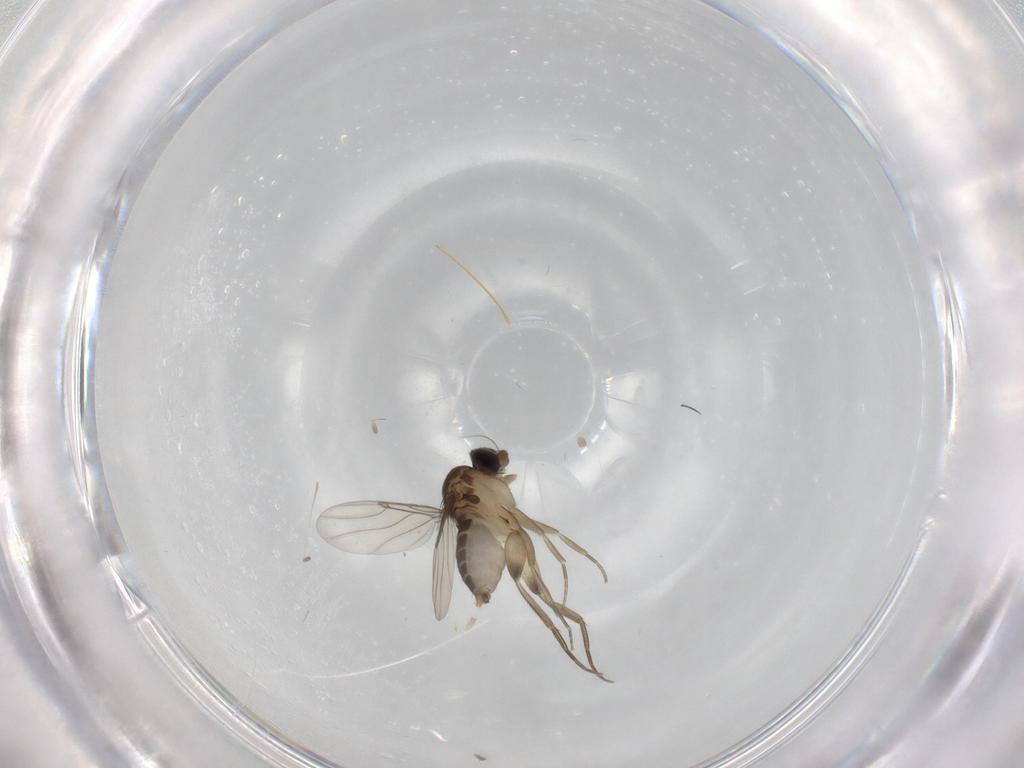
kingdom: Animalia
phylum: Arthropoda
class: Insecta
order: Diptera
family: Phoridae
